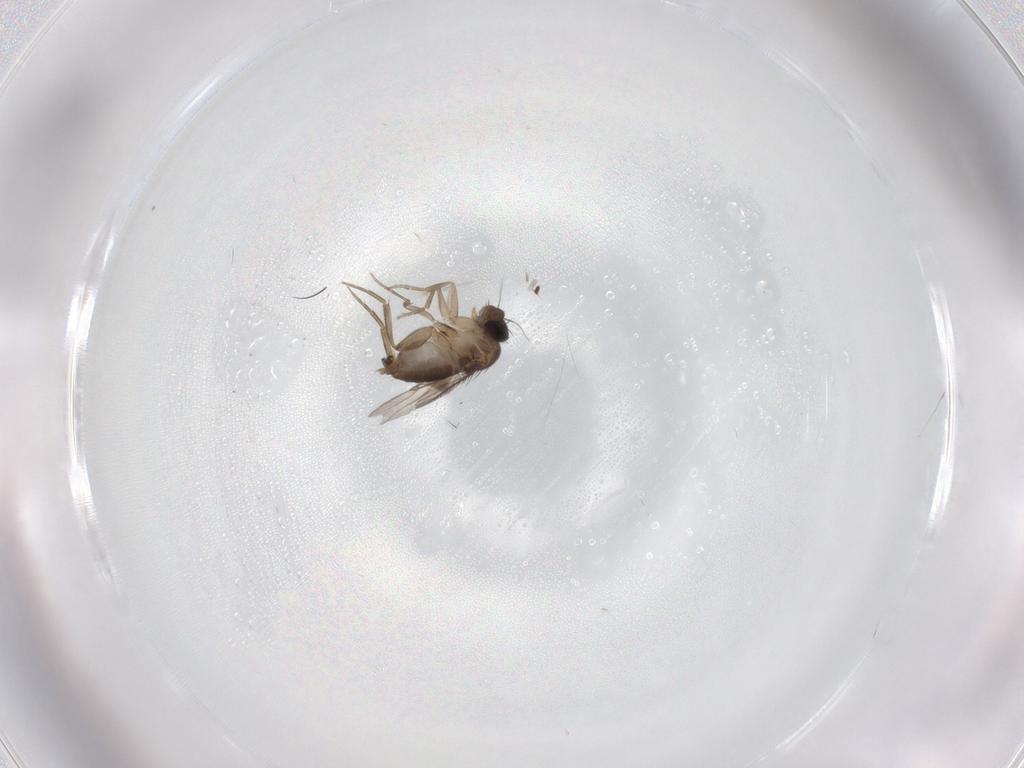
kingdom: Animalia
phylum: Arthropoda
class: Insecta
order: Diptera
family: Phoridae
